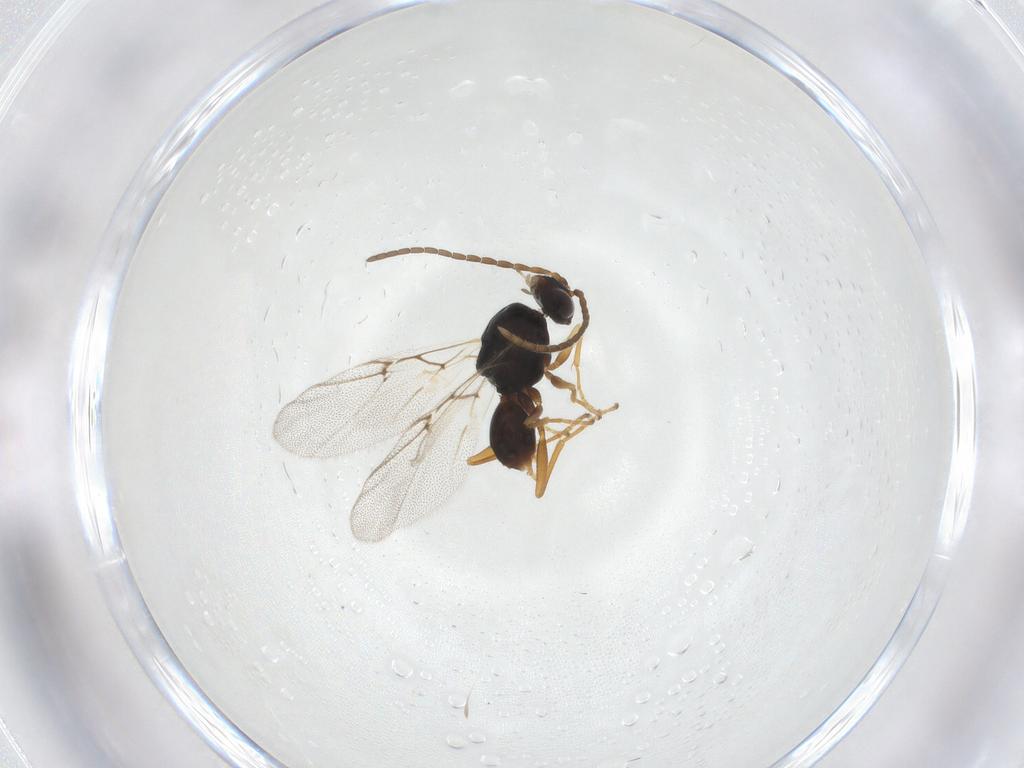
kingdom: Animalia
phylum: Arthropoda
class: Insecta
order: Hymenoptera
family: Cynipidae
